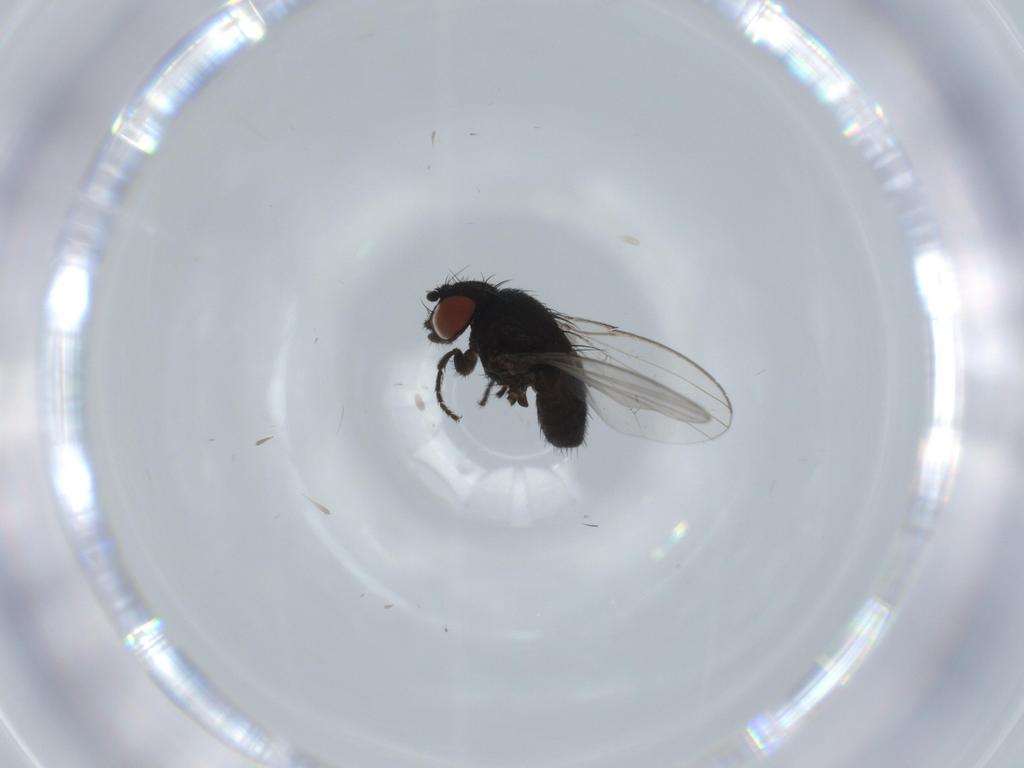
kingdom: Animalia
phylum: Arthropoda
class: Insecta
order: Diptera
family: Milichiidae
